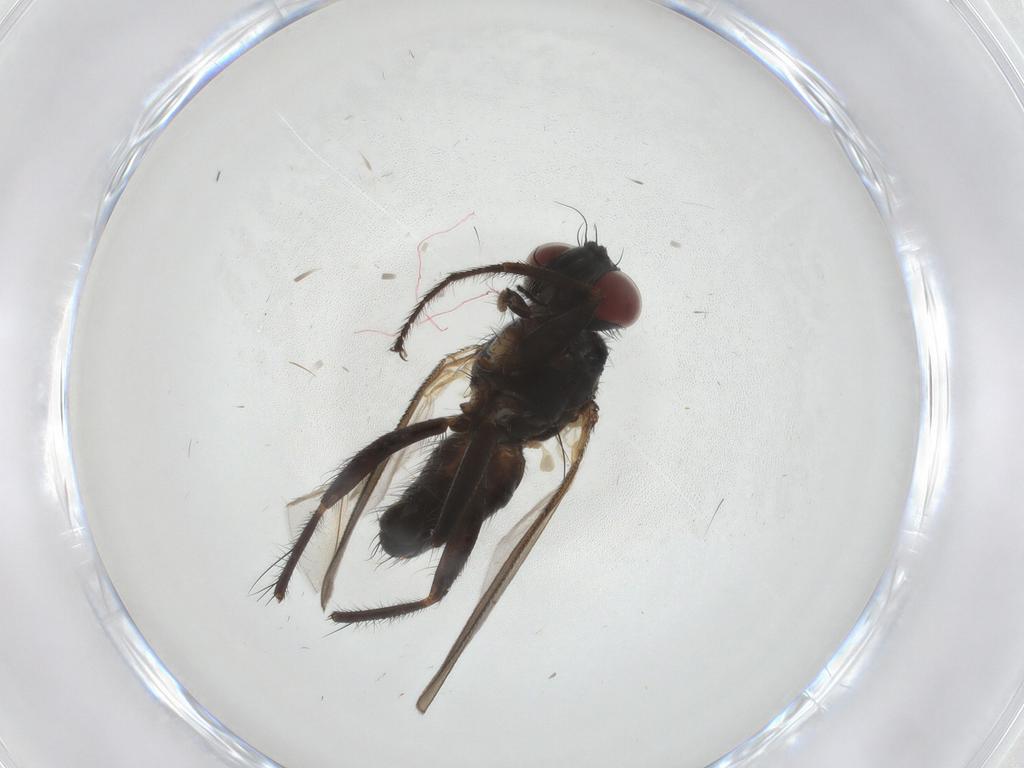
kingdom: Animalia
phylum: Arthropoda
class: Insecta
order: Diptera
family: Muscidae
